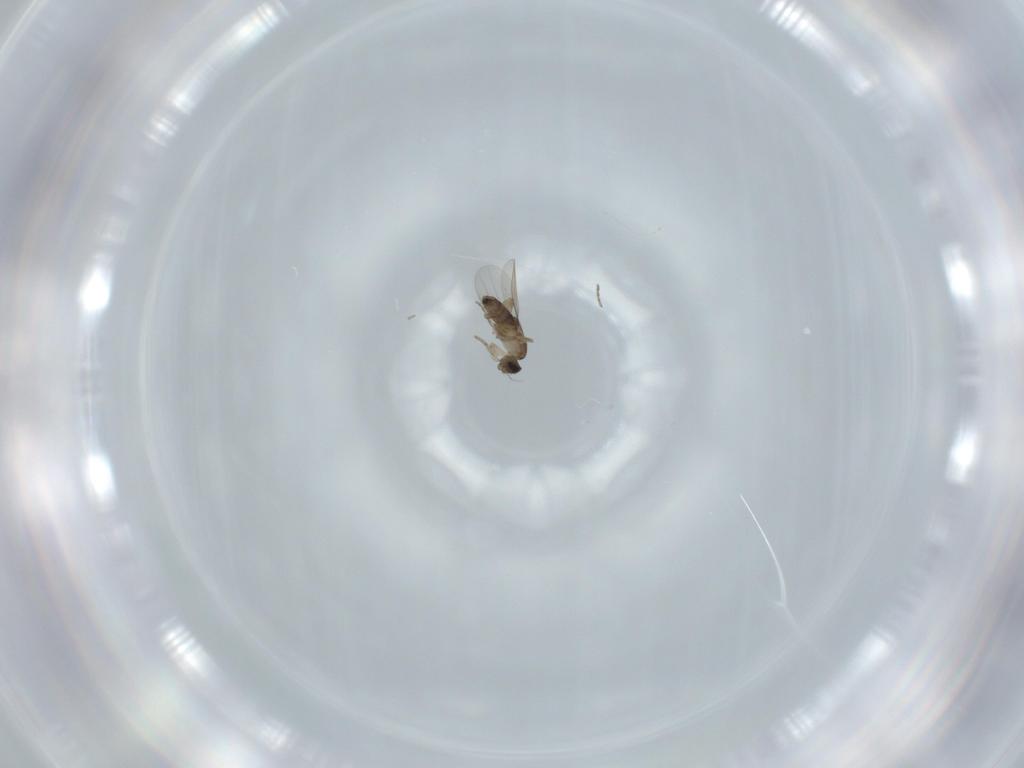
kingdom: Animalia
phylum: Arthropoda
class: Insecta
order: Diptera
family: Phoridae
